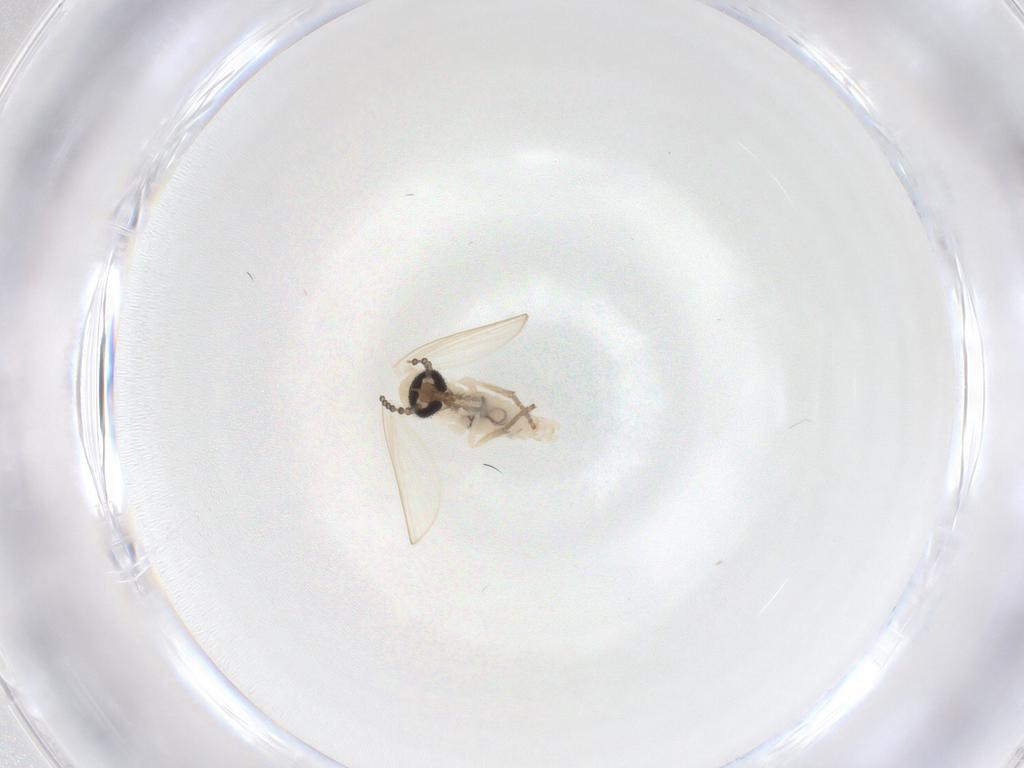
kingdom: Animalia
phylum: Arthropoda
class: Insecta
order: Diptera
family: Psychodidae
